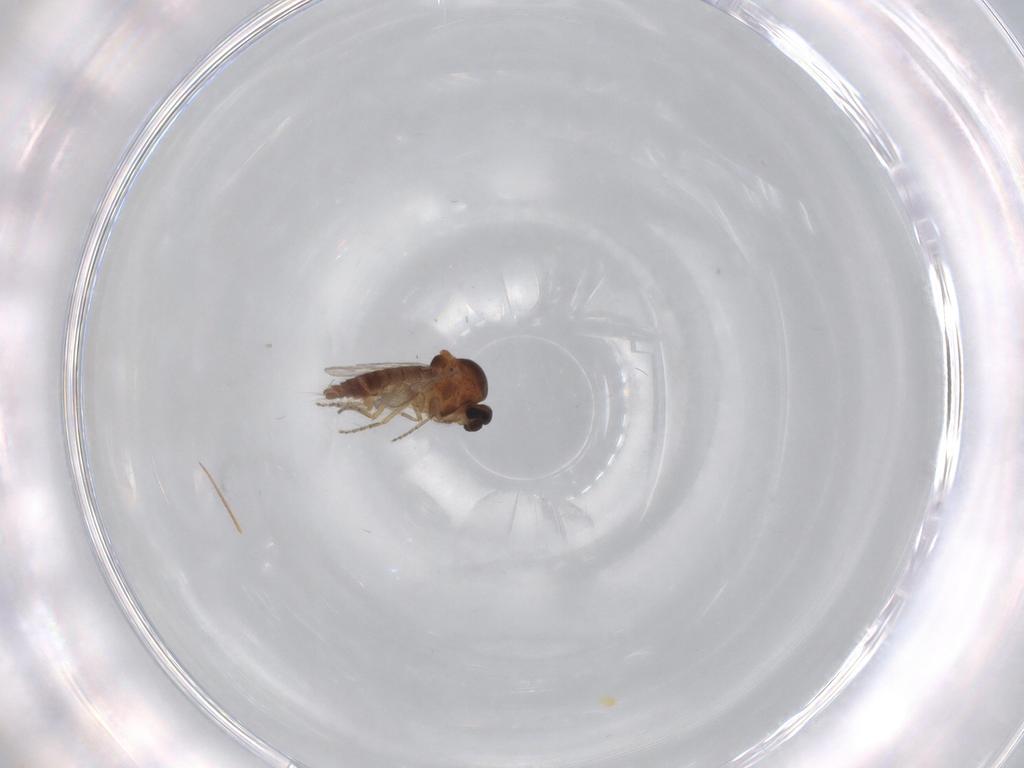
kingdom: Animalia
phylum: Arthropoda
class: Insecta
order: Diptera
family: Ceratopogonidae
